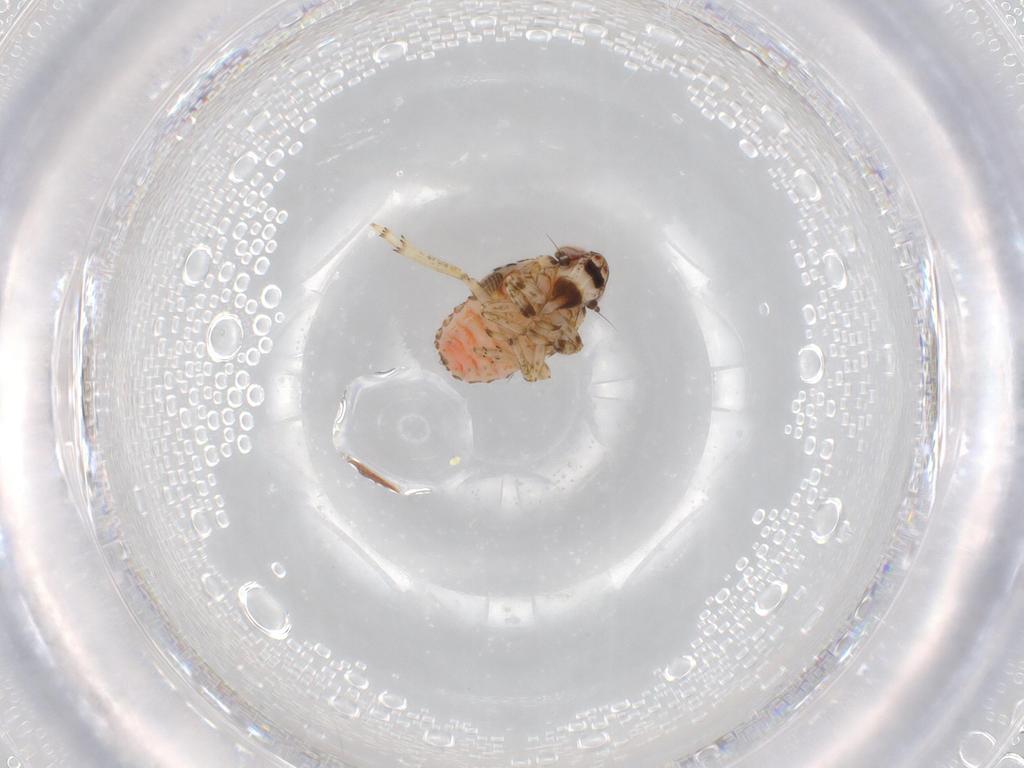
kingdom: Animalia
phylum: Arthropoda
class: Insecta
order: Hemiptera
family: Issidae
